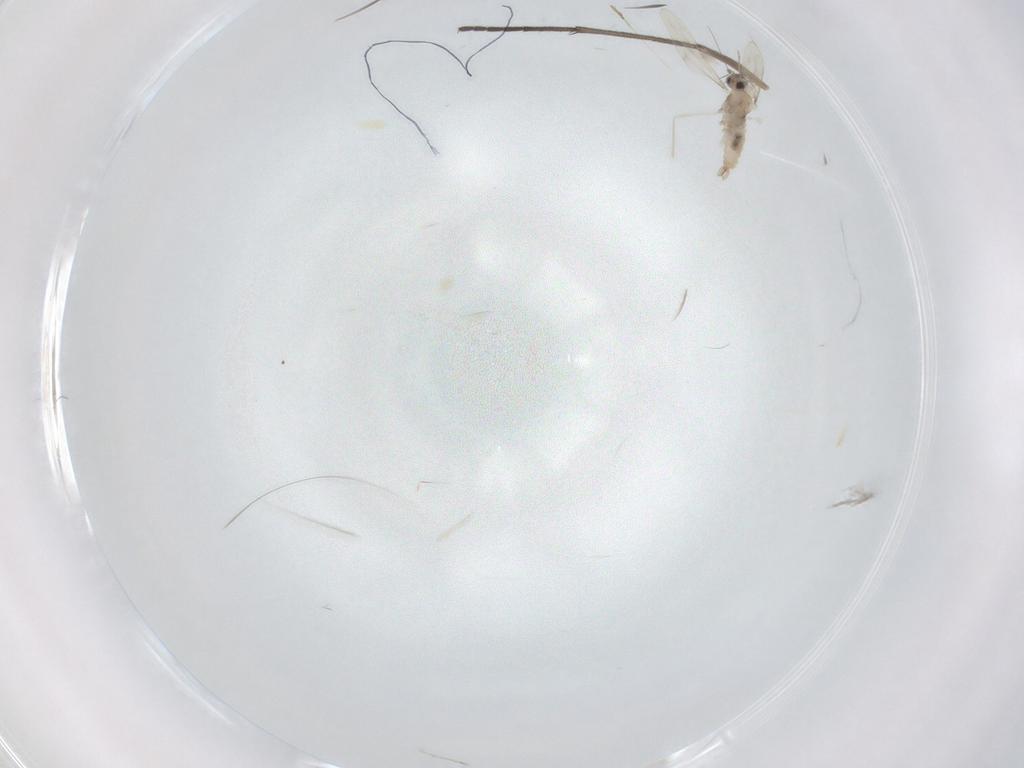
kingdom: Animalia
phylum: Arthropoda
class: Insecta
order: Diptera
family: Cecidomyiidae
